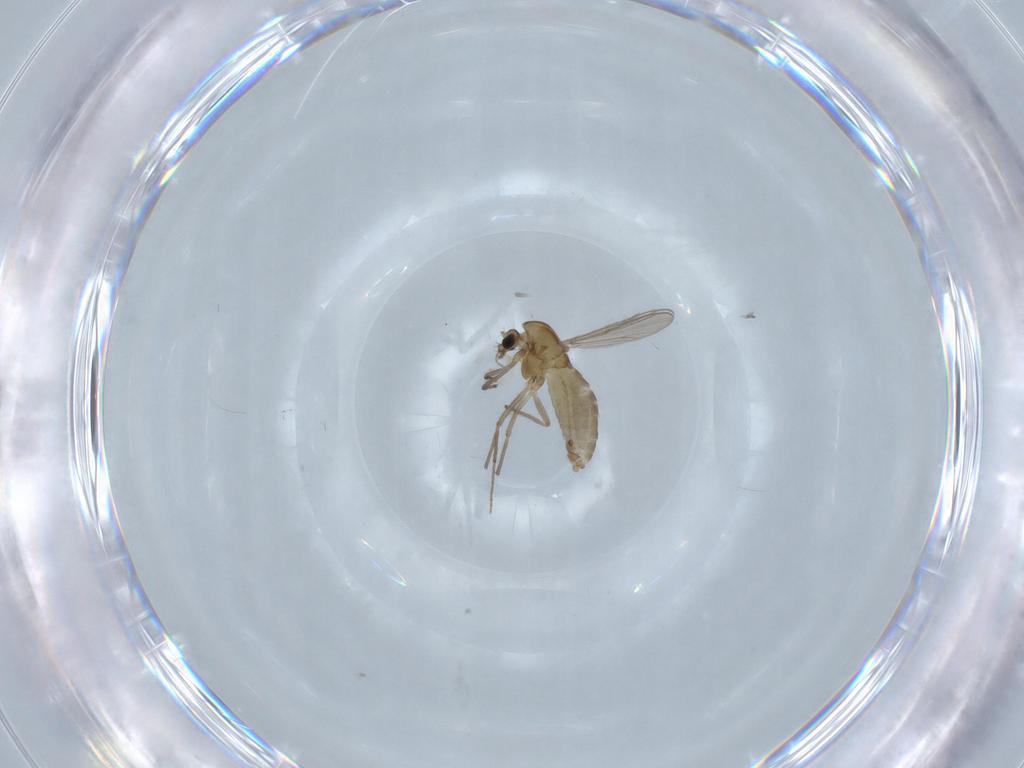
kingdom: Animalia
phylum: Arthropoda
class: Insecta
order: Diptera
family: Chironomidae
